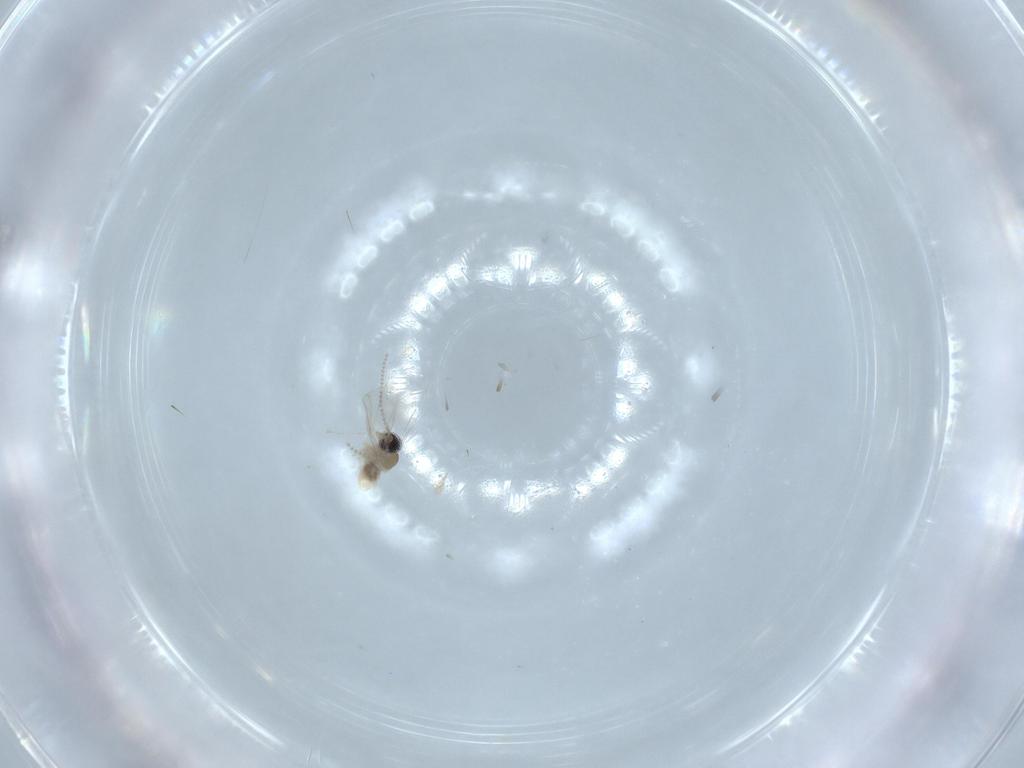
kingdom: Animalia
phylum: Arthropoda
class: Insecta
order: Diptera
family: Cecidomyiidae
